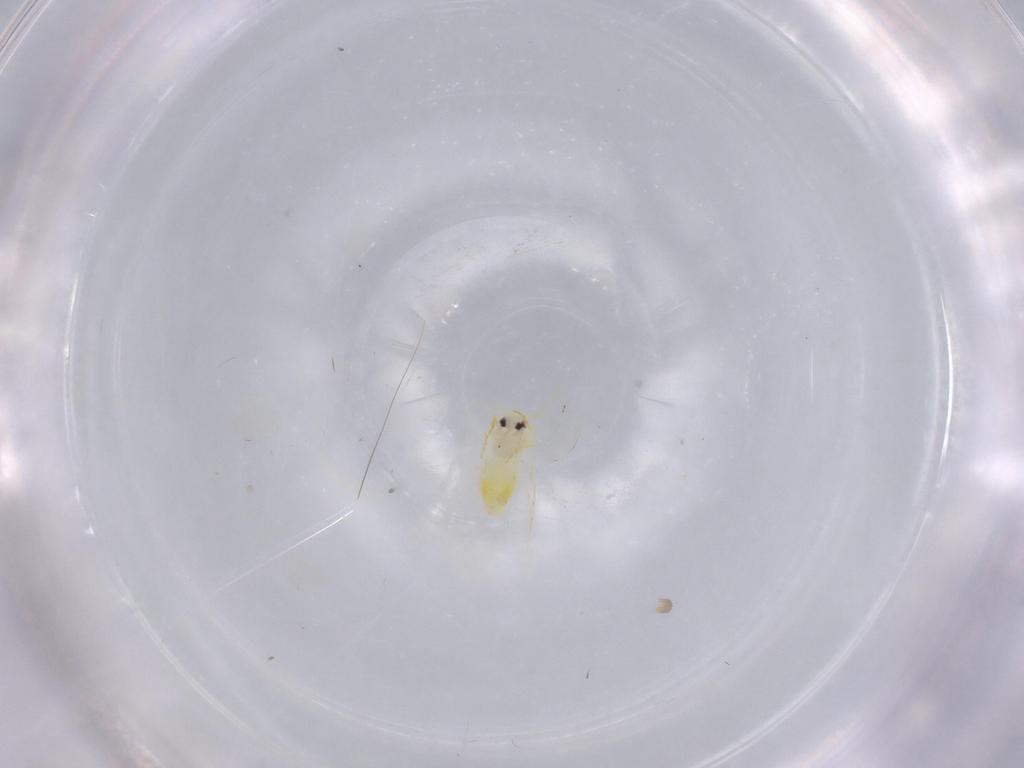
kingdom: Animalia
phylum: Arthropoda
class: Insecta
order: Hemiptera
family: Aleyrodidae
